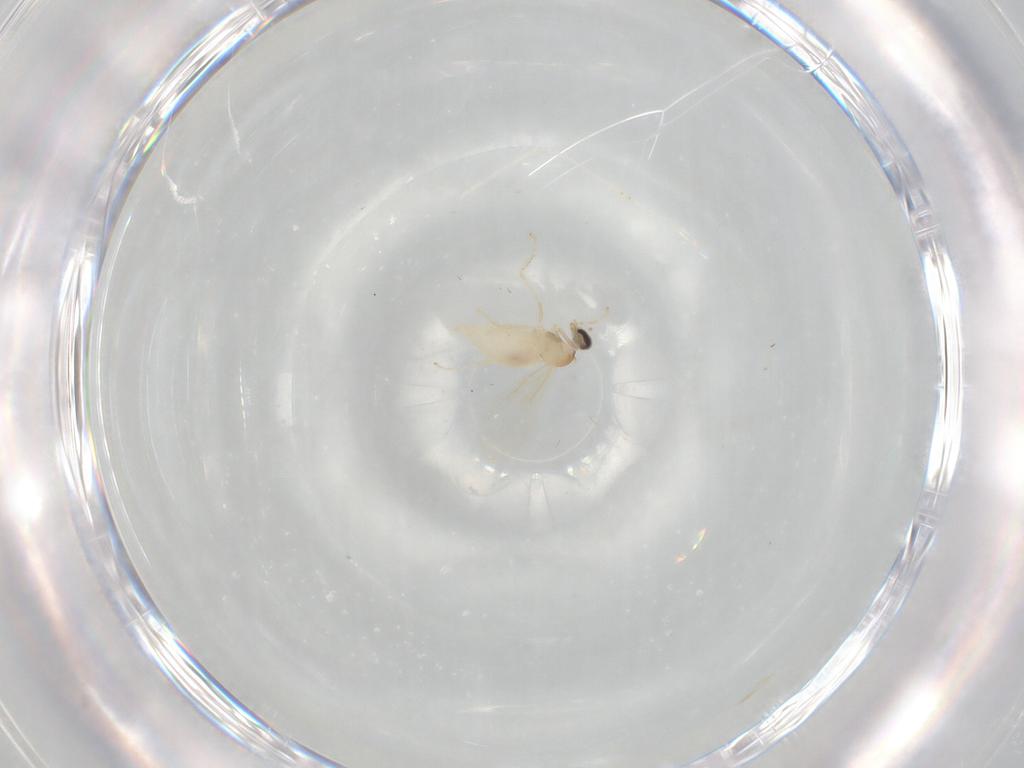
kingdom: Animalia
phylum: Arthropoda
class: Insecta
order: Diptera
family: Cecidomyiidae
